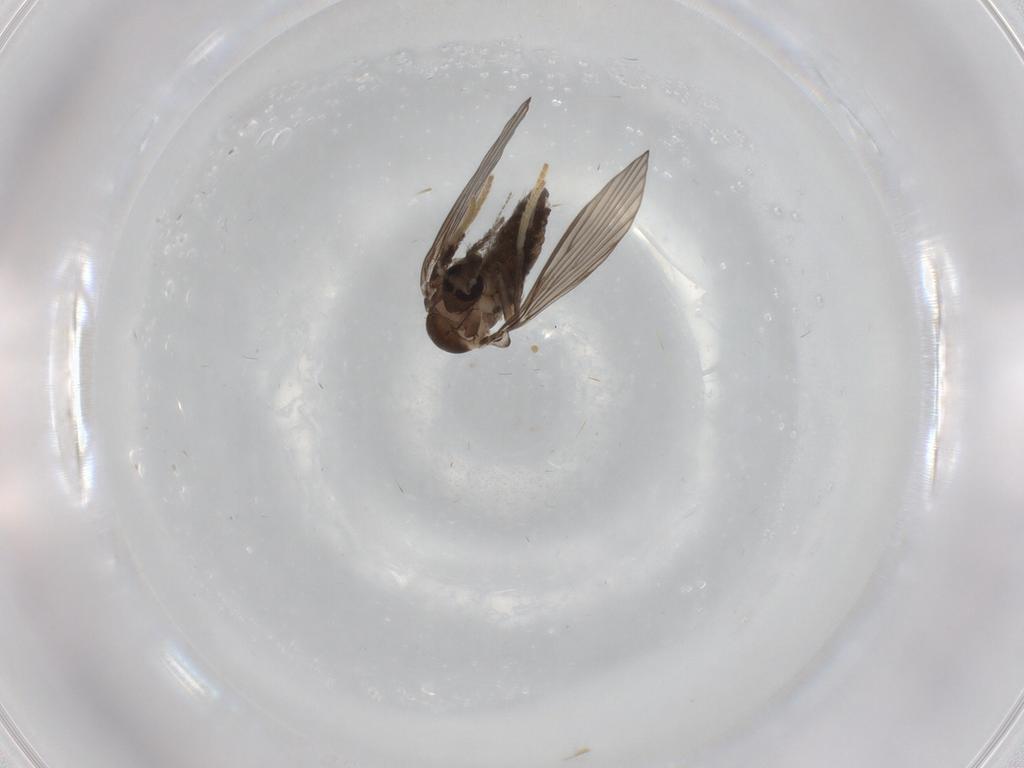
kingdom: Animalia
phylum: Arthropoda
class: Insecta
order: Diptera
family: Psychodidae
